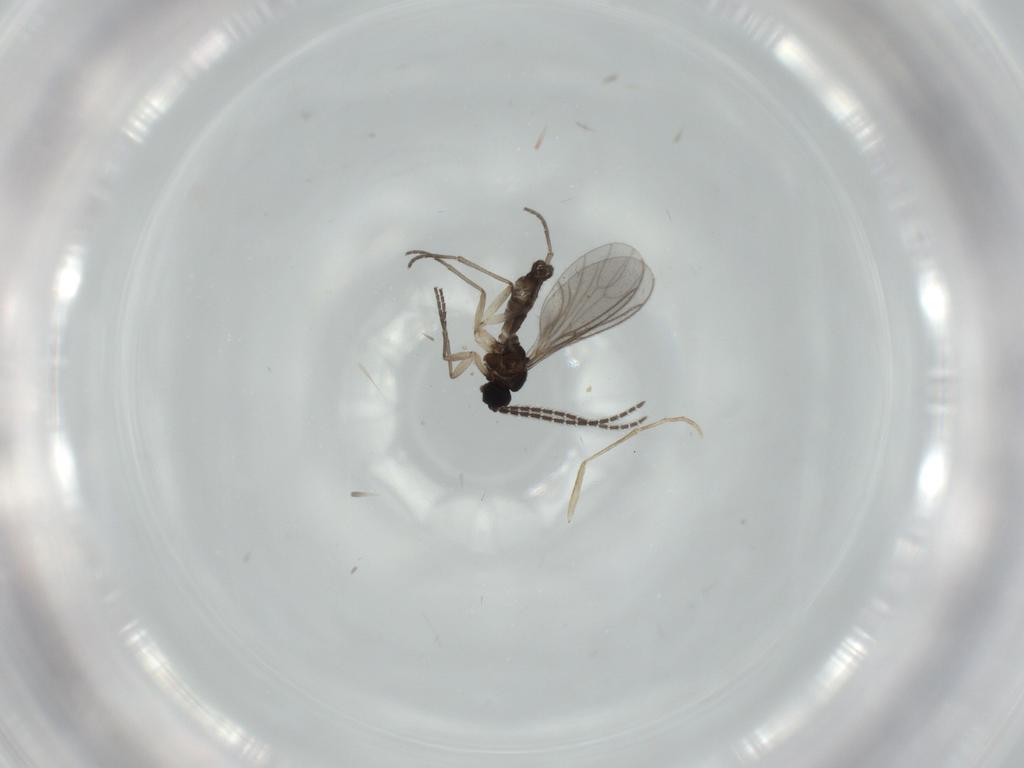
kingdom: Animalia
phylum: Arthropoda
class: Insecta
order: Diptera
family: Sciaridae
